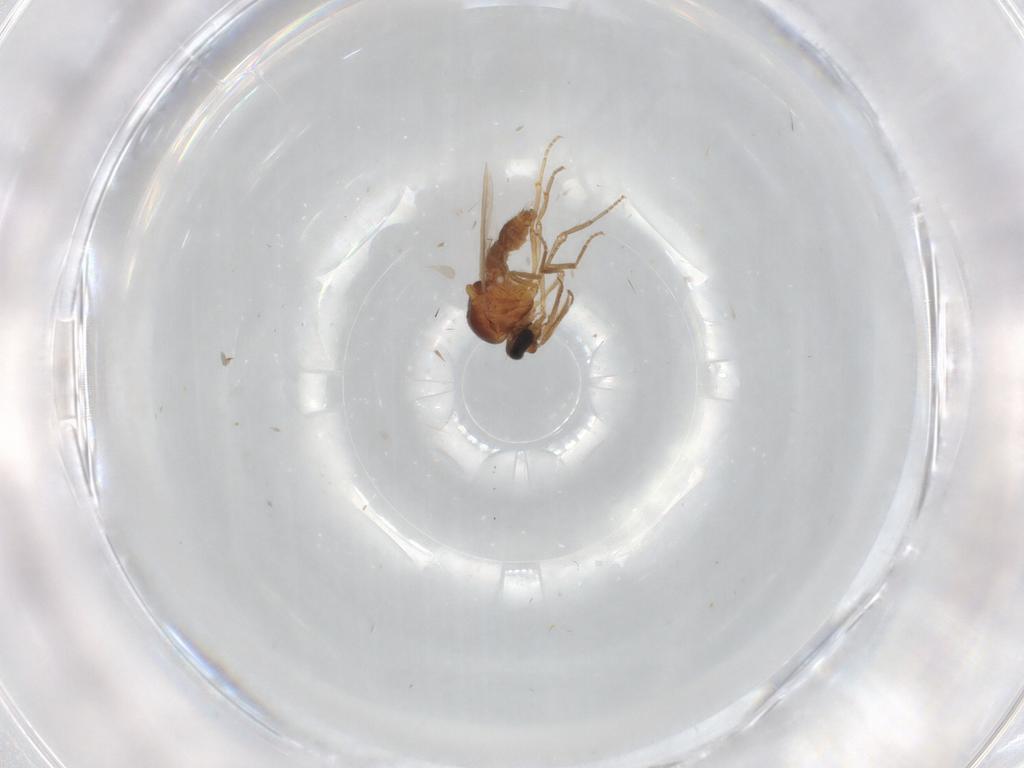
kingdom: Animalia
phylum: Arthropoda
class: Insecta
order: Diptera
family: Ceratopogonidae
